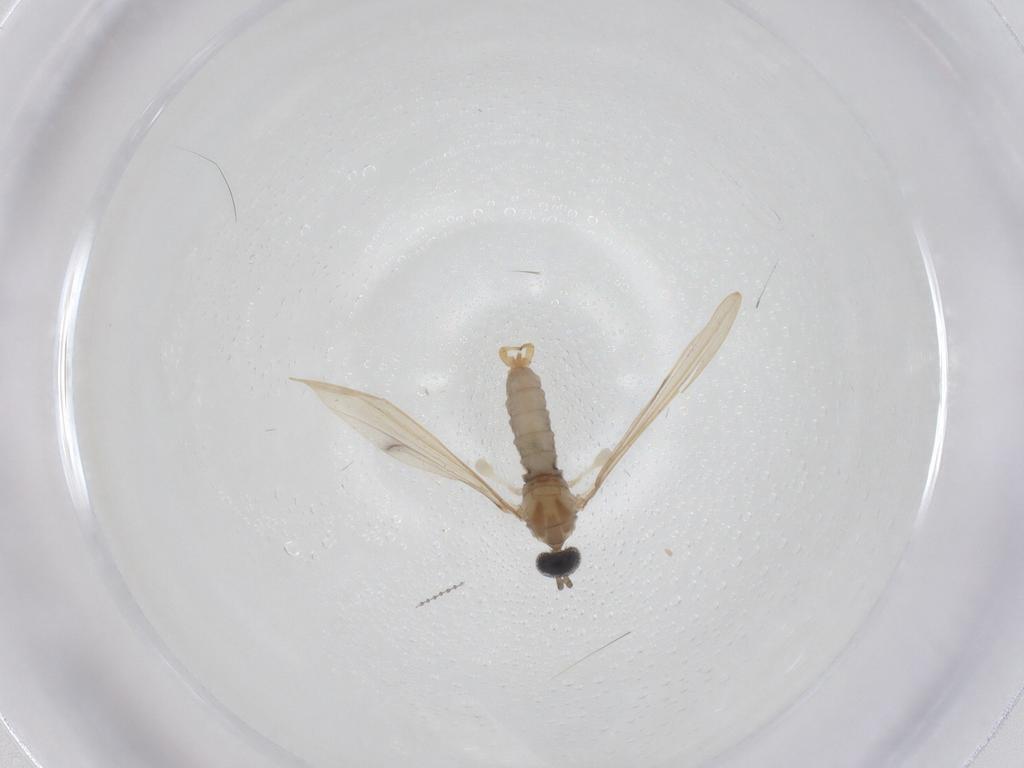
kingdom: Animalia
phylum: Arthropoda
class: Insecta
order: Diptera
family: Cecidomyiidae
